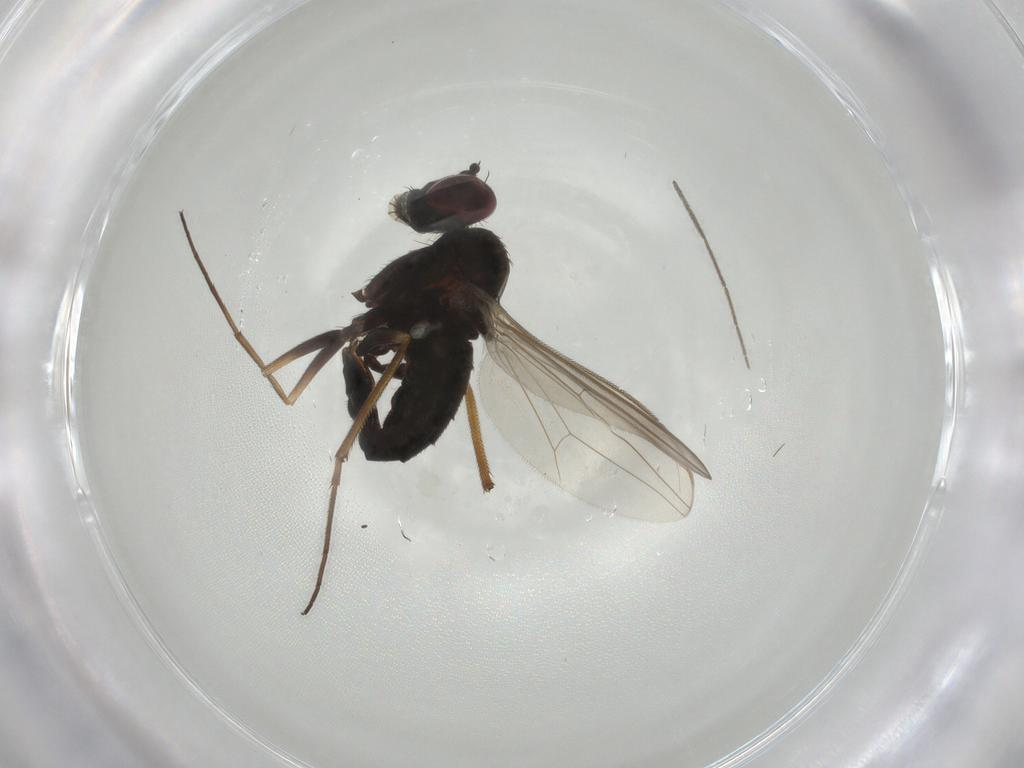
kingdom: Animalia
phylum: Arthropoda
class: Insecta
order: Diptera
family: Dolichopodidae
